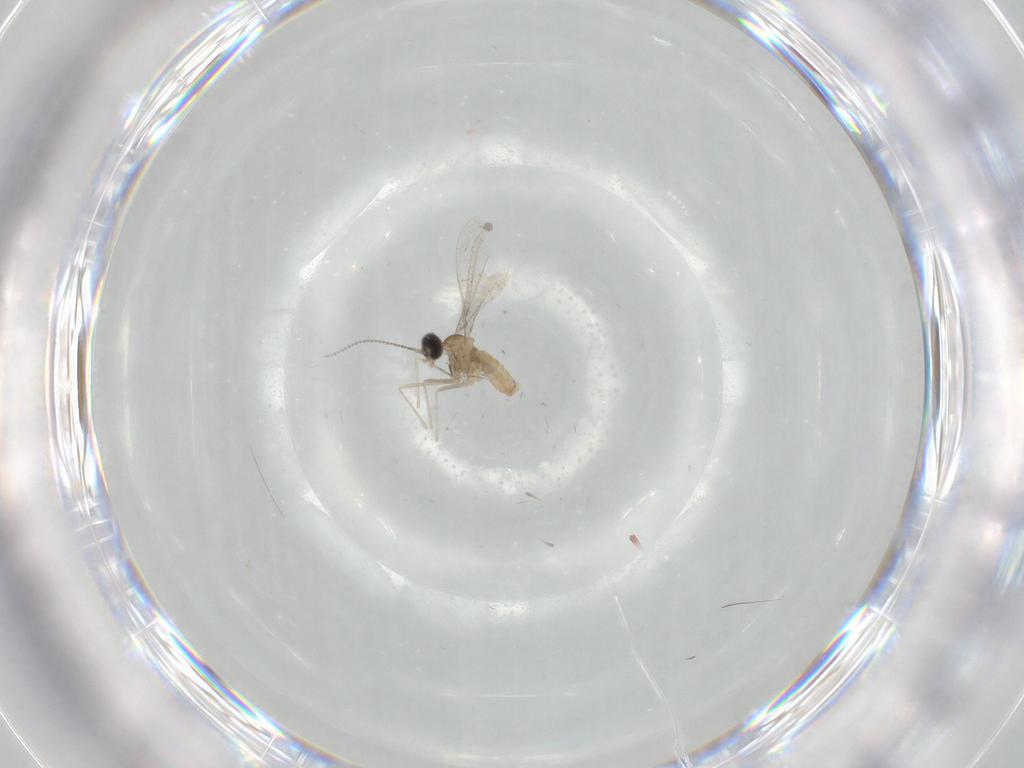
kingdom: Animalia
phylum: Arthropoda
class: Insecta
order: Diptera
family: Cecidomyiidae
